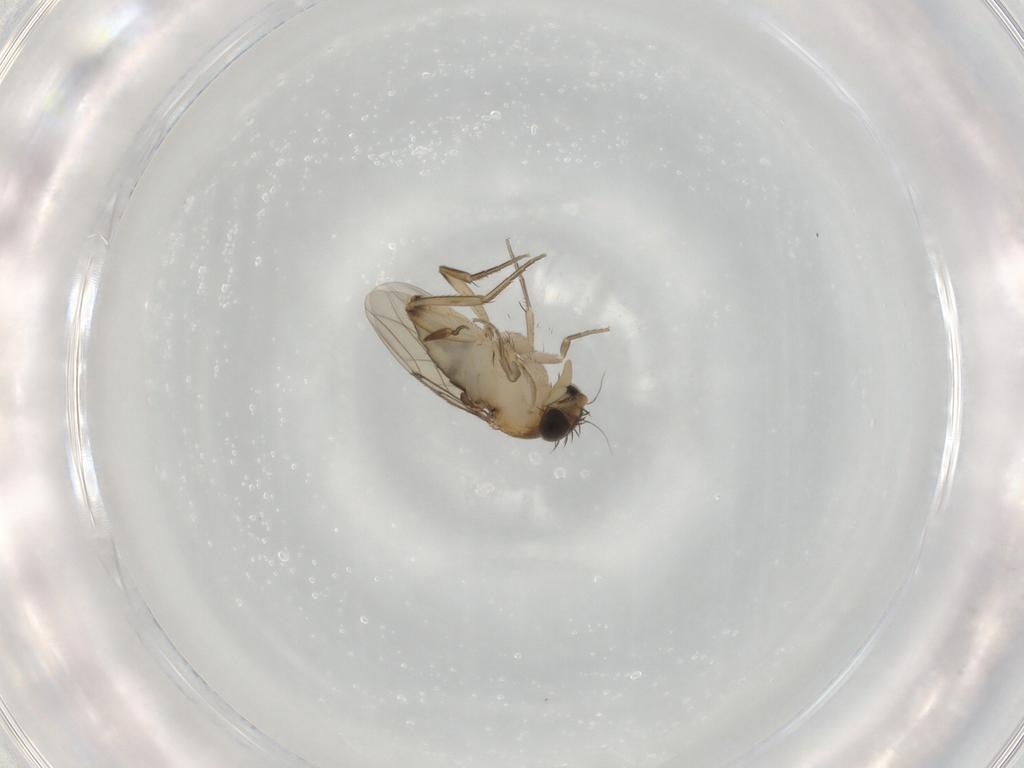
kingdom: Animalia
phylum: Arthropoda
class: Insecta
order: Diptera
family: Phoridae
